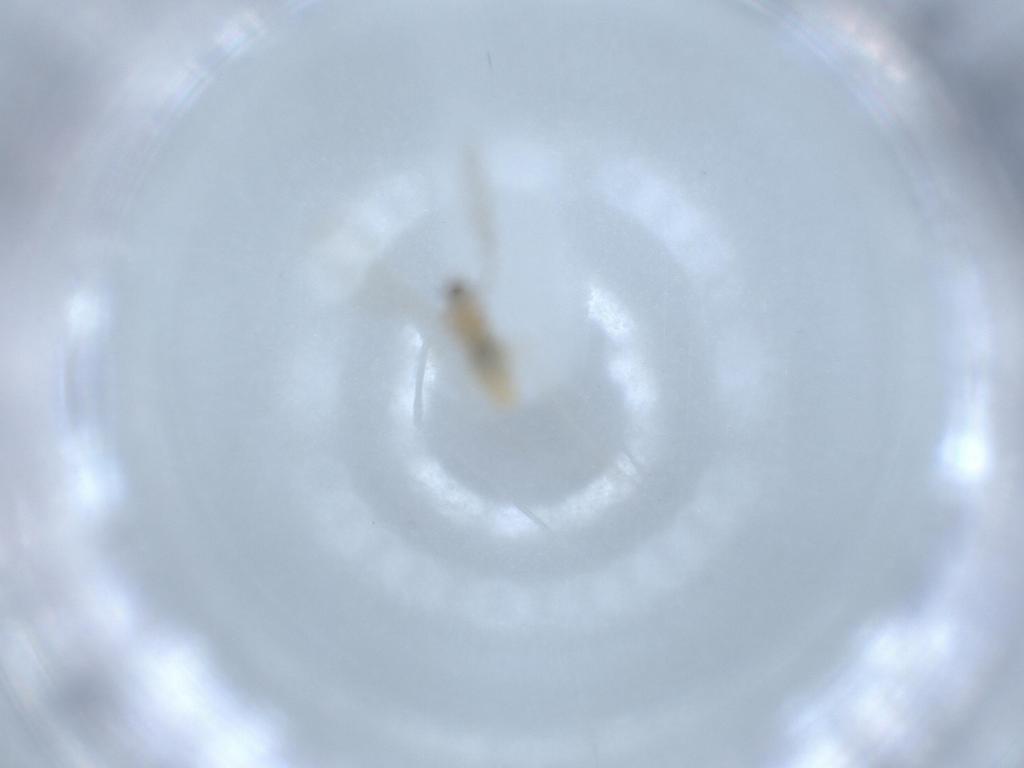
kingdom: Animalia
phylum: Arthropoda
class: Insecta
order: Diptera
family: Cecidomyiidae
